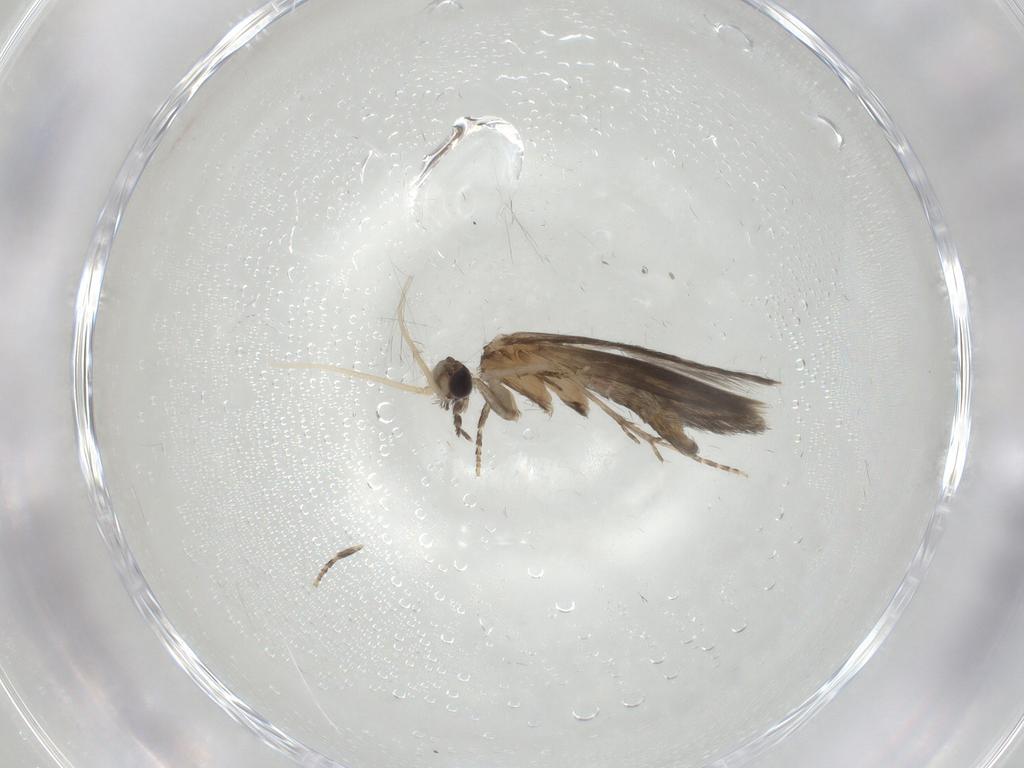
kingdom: Animalia
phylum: Arthropoda
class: Insecta
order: Trichoptera
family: Hydroptilidae
